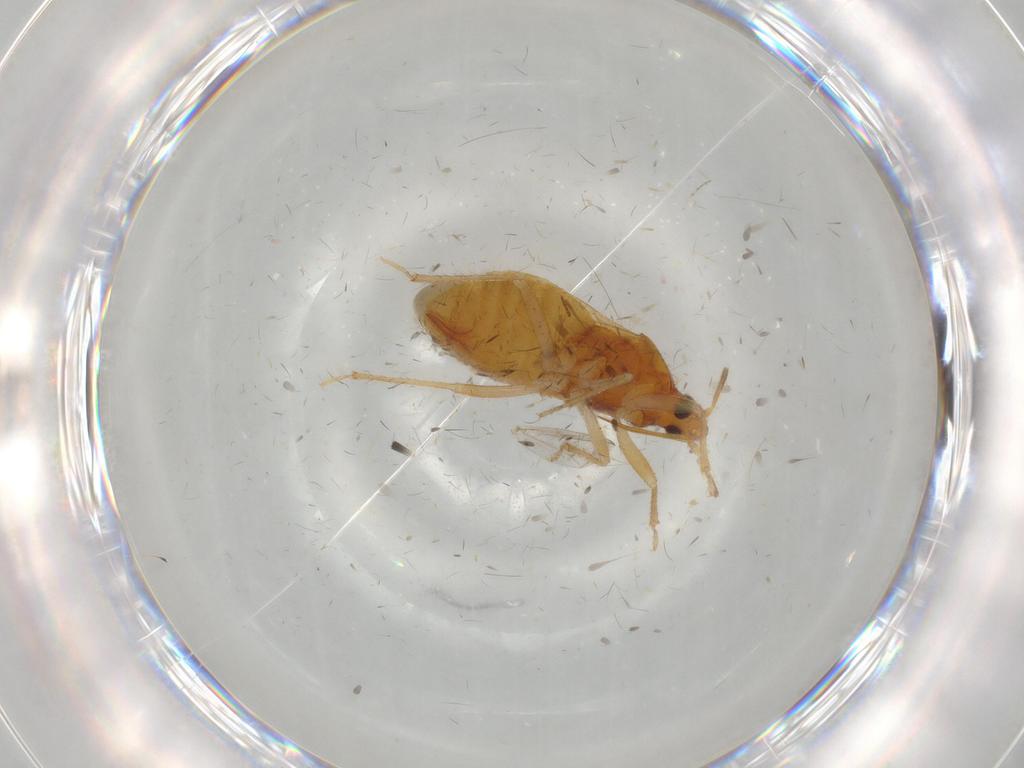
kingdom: Animalia
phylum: Arthropoda
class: Insecta
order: Hemiptera
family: Lasiochilidae
